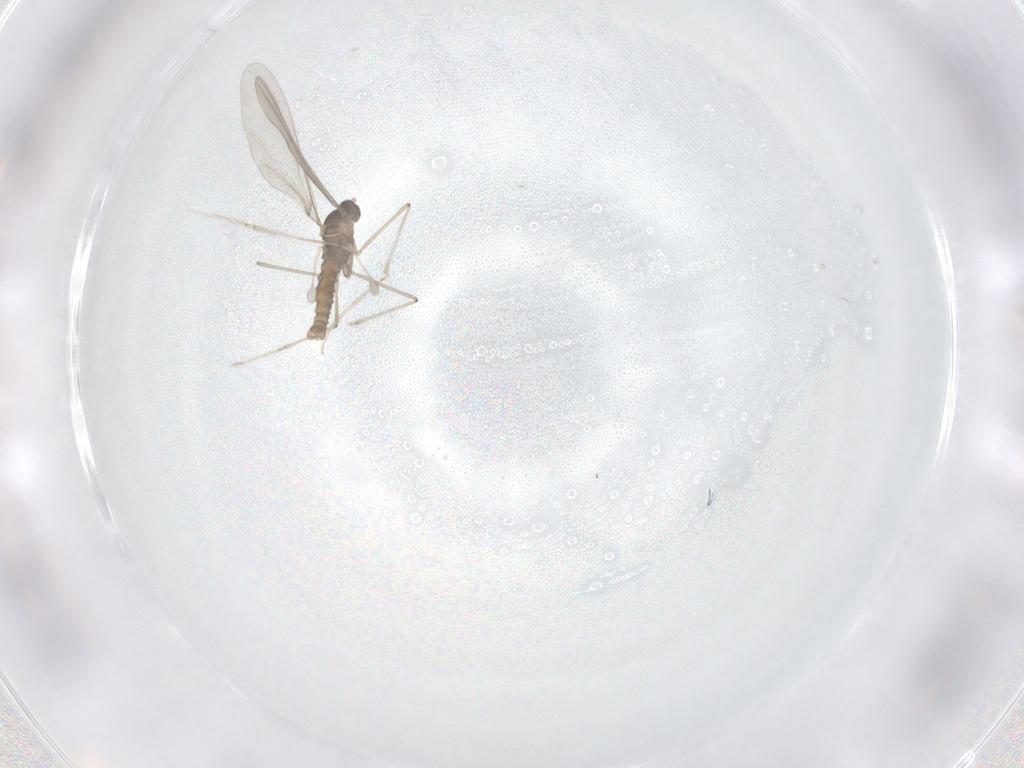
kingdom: Animalia
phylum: Arthropoda
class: Insecta
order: Diptera
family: Cecidomyiidae
